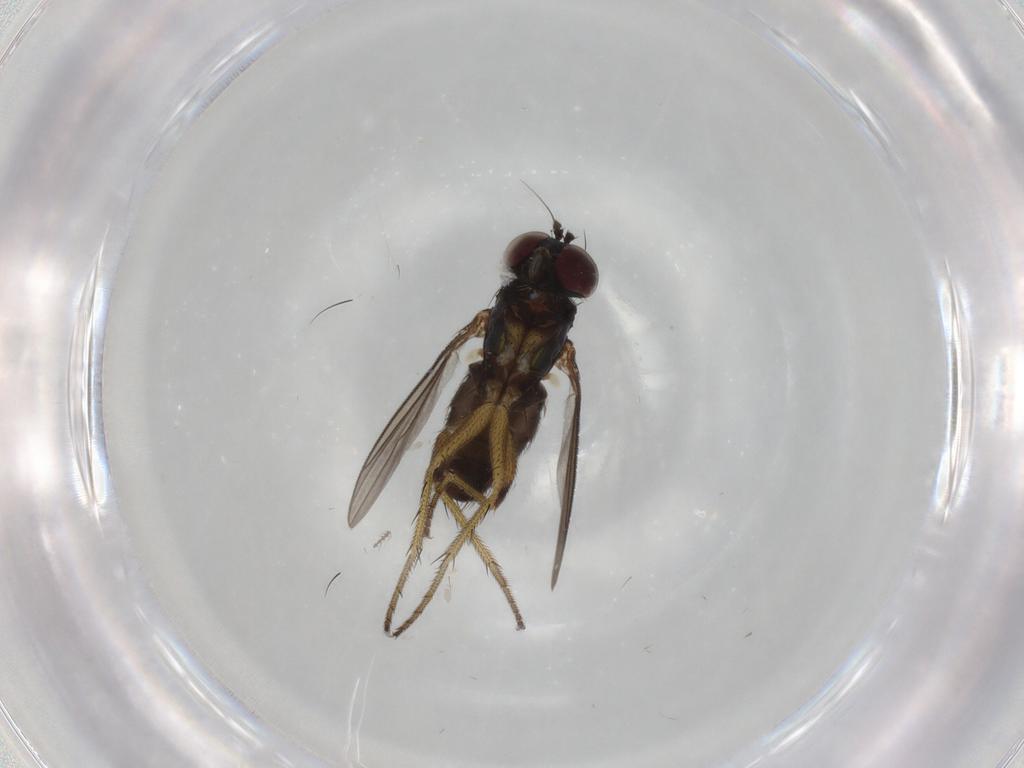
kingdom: Animalia
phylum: Arthropoda
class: Insecta
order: Diptera
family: Dolichopodidae
